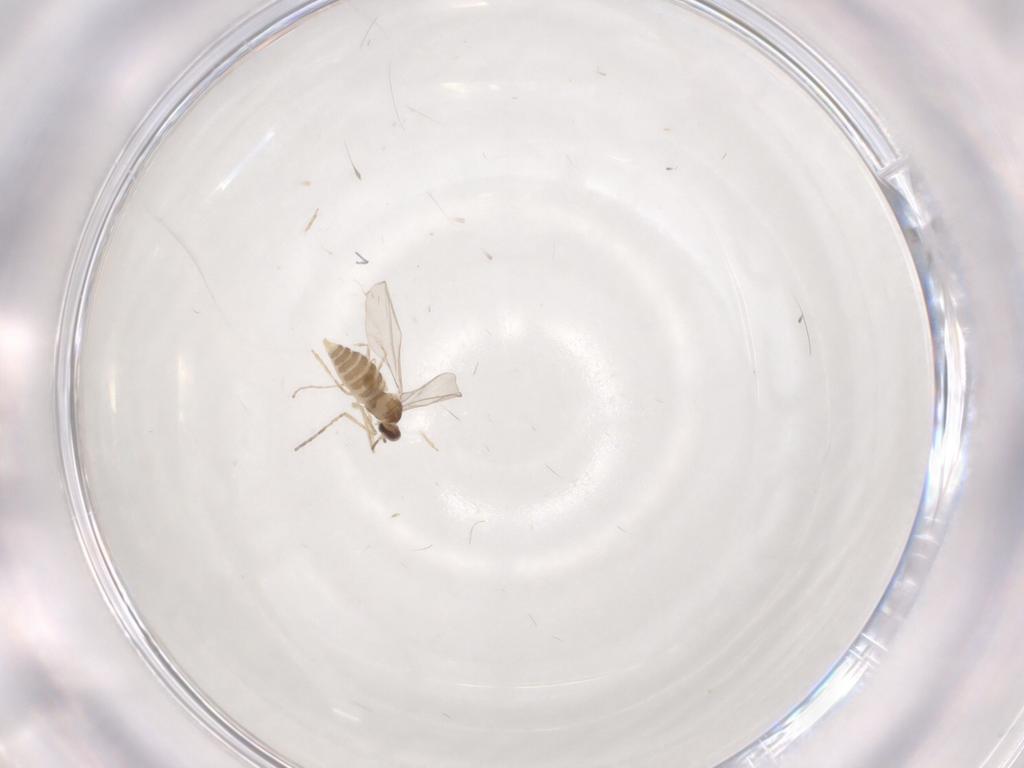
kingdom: Animalia
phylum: Arthropoda
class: Insecta
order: Diptera
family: Cecidomyiidae
